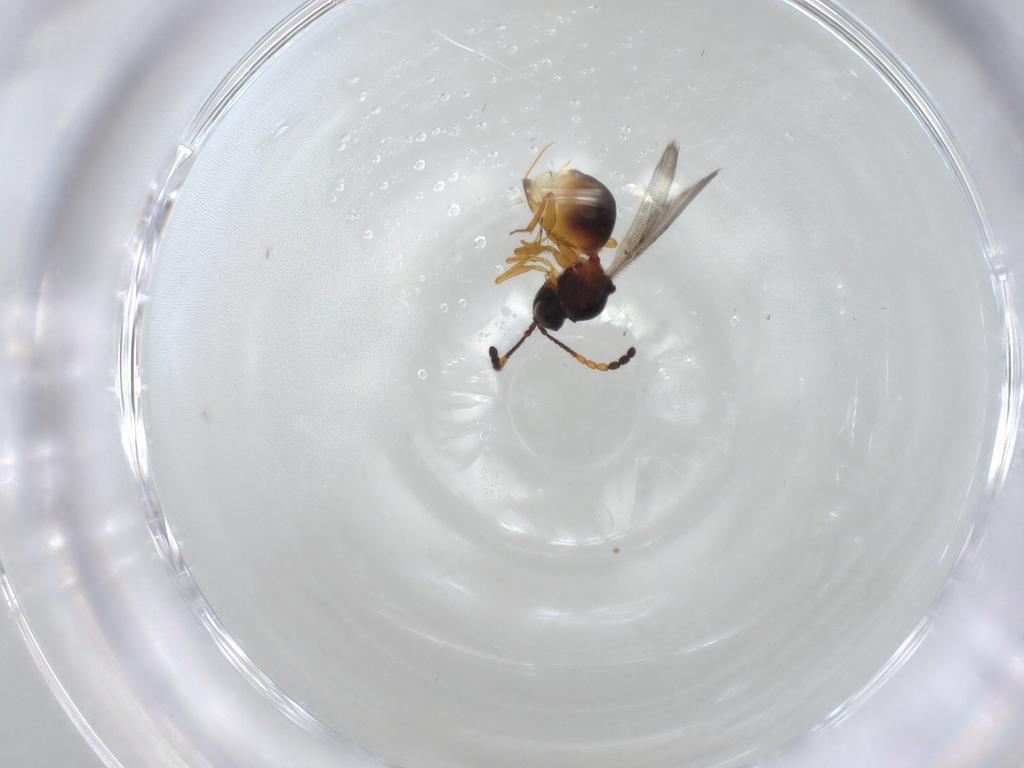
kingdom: Animalia
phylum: Arthropoda
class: Insecta
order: Hymenoptera
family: Figitidae
